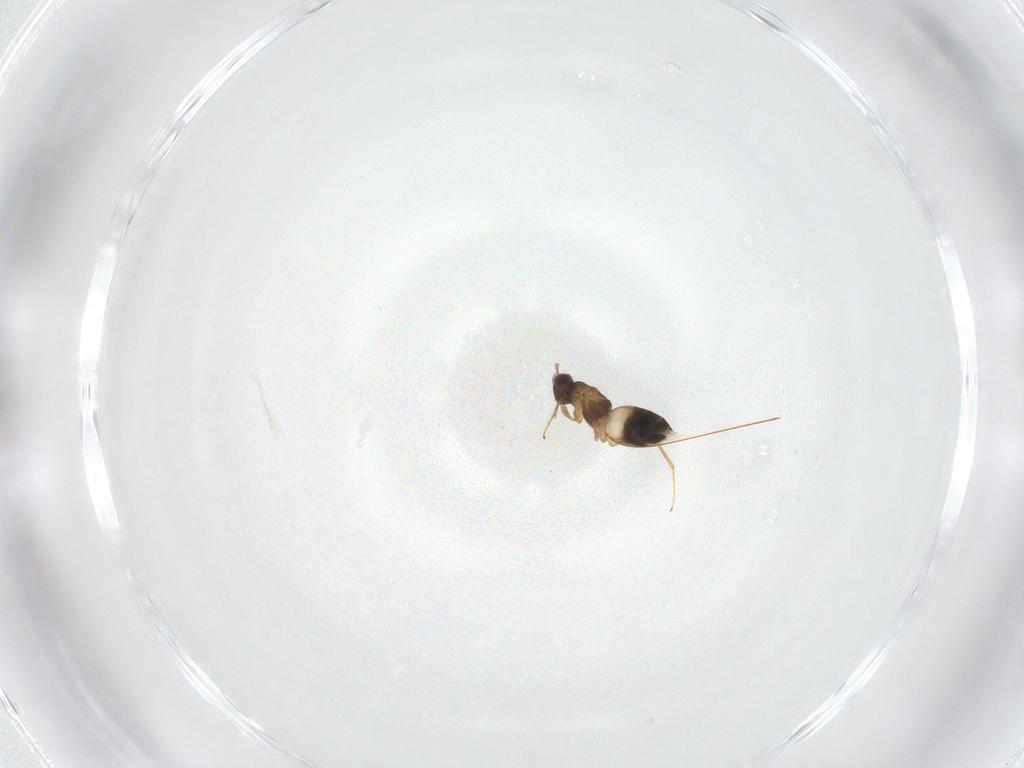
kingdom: Animalia
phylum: Arthropoda
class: Insecta
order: Hymenoptera
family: Mymaridae
